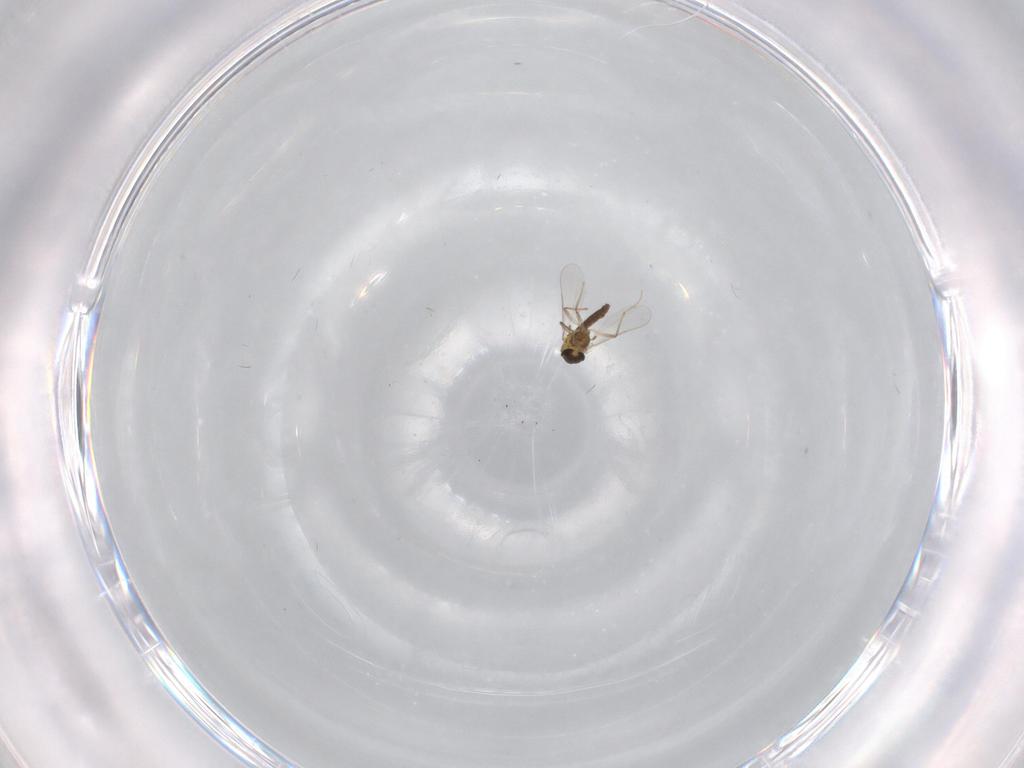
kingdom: Animalia
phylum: Arthropoda
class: Insecta
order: Diptera
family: Chironomidae
